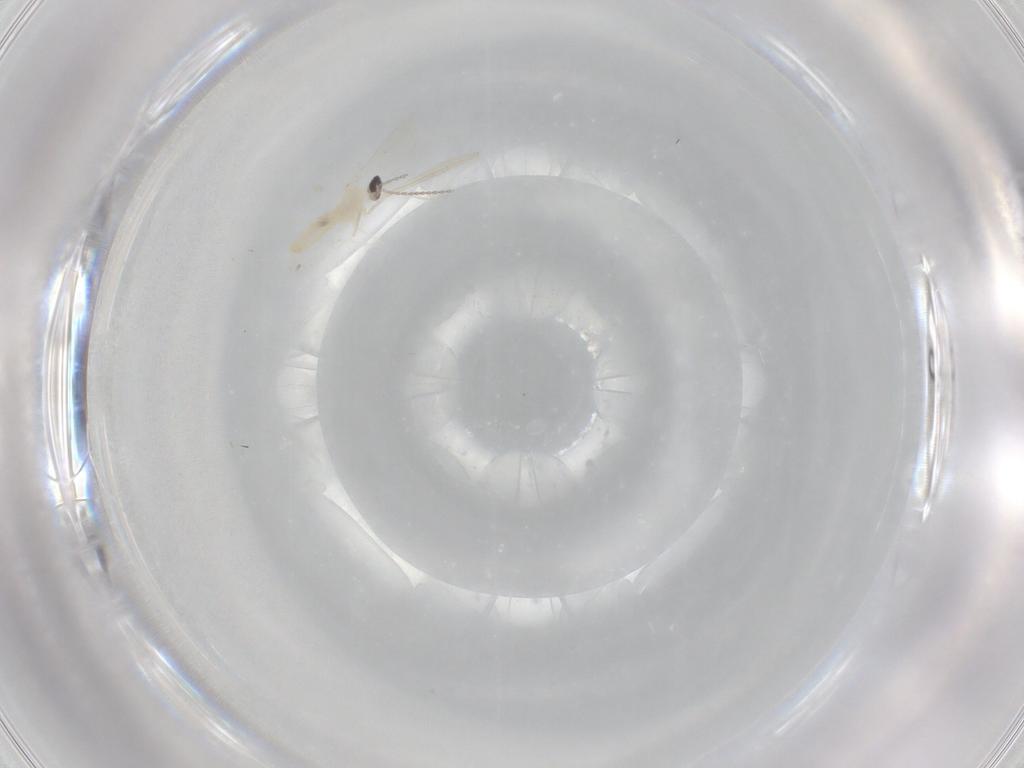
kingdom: Animalia
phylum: Arthropoda
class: Insecta
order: Diptera
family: Cecidomyiidae
